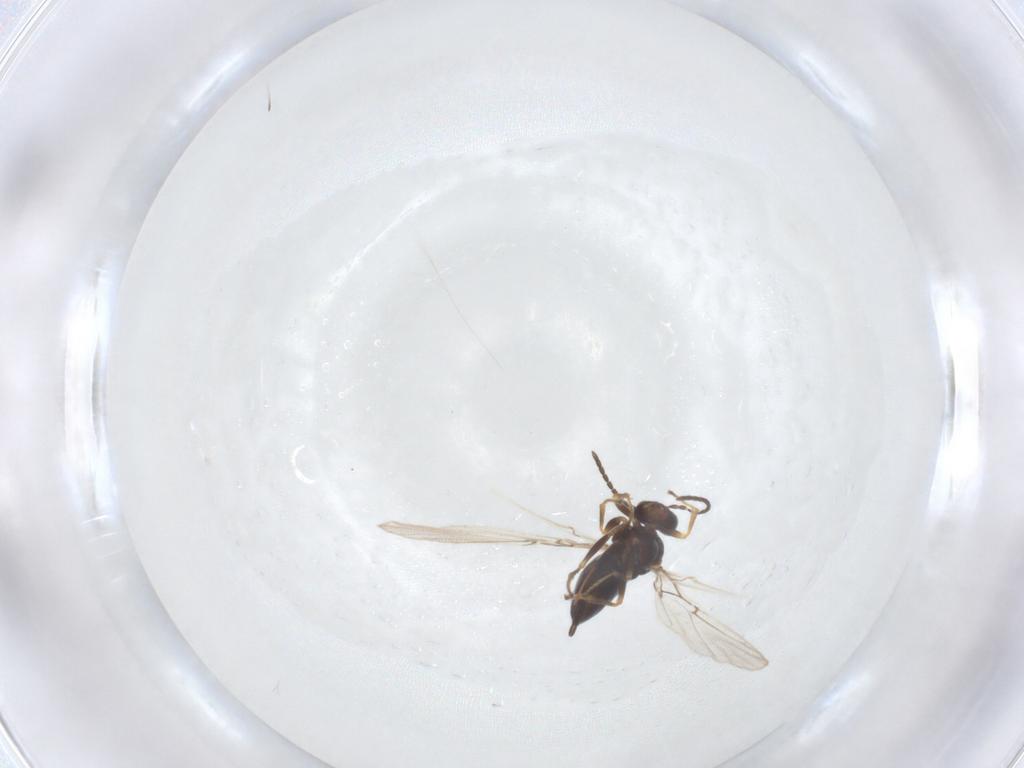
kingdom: Animalia
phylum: Arthropoda
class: Insecta
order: Hymenoptera
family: Cynipidae
